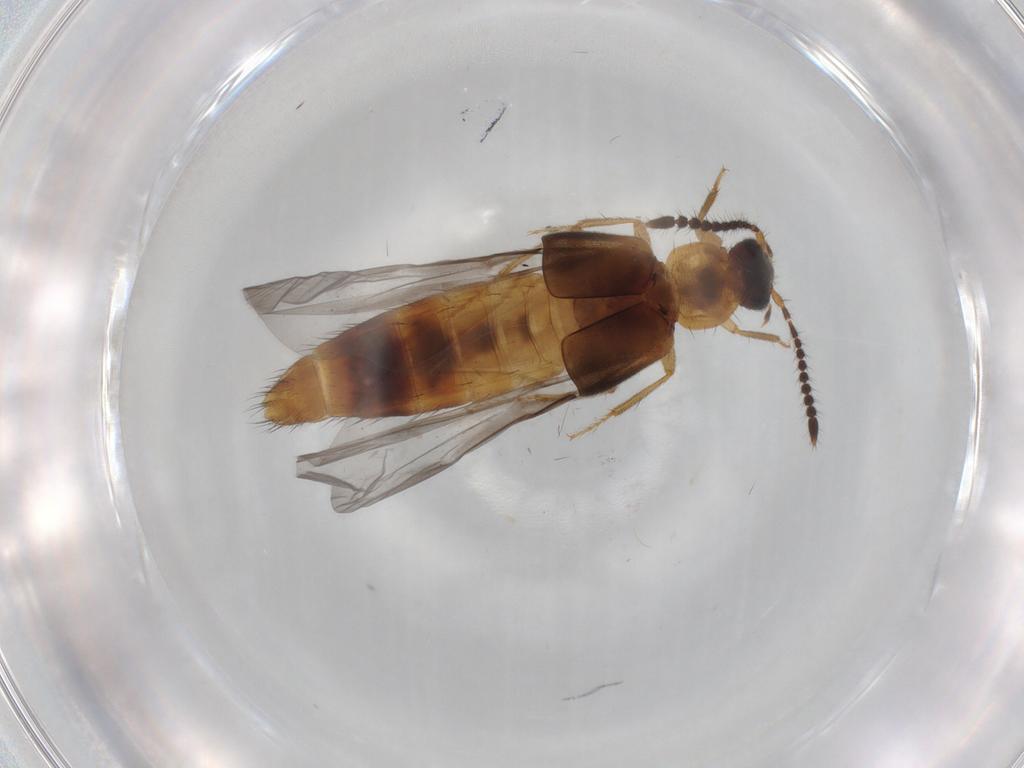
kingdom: Animalia
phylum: Arthropoda
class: Insecta
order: Coleoptera
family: Staphylinidae
